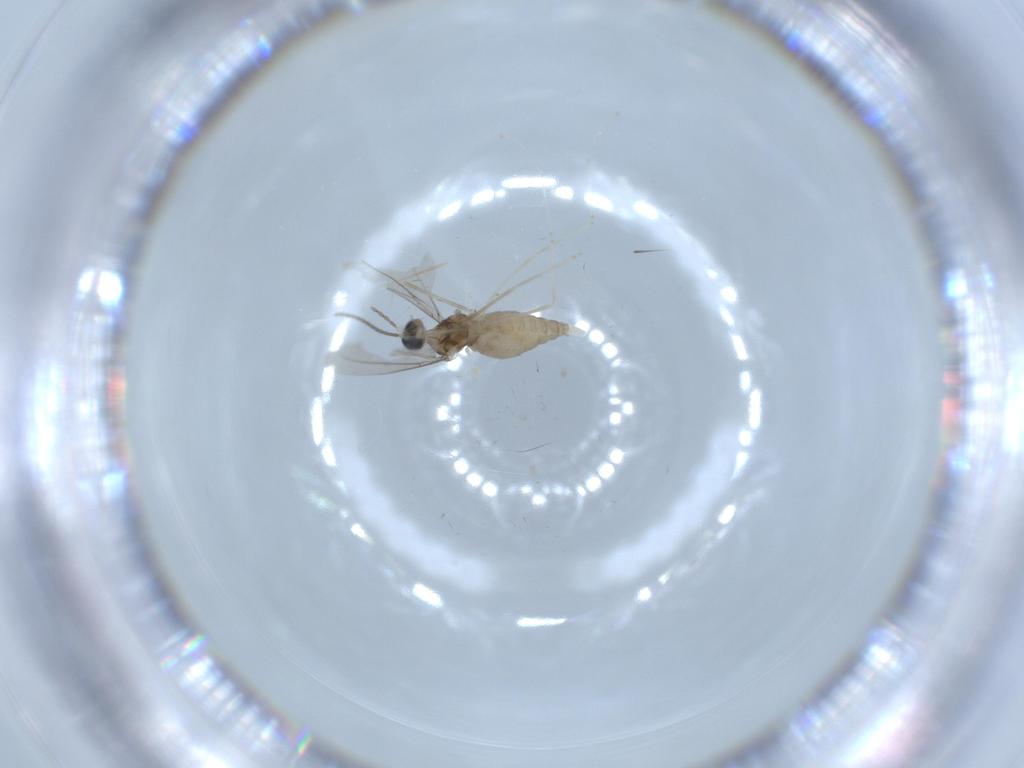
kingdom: Animalia
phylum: Arthropoda
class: Insecta
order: Diptera
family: Cecidomyiidae
